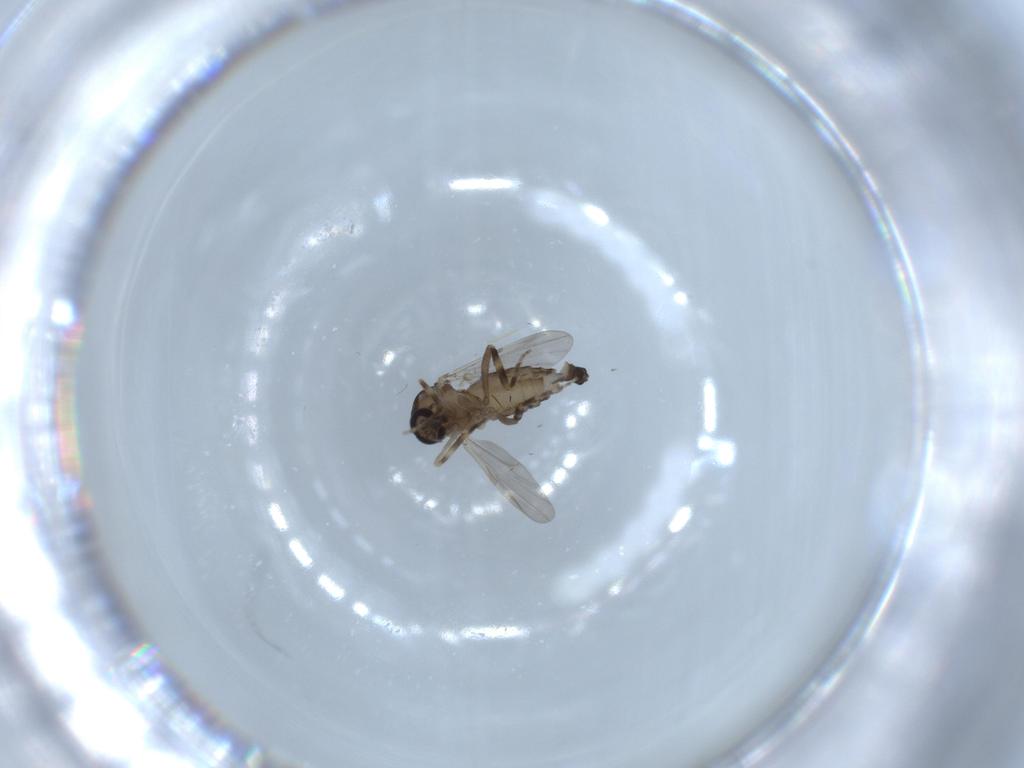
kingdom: Animalia
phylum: Arthropoda
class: Insecta
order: Diptera
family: Ceratopogonidae
